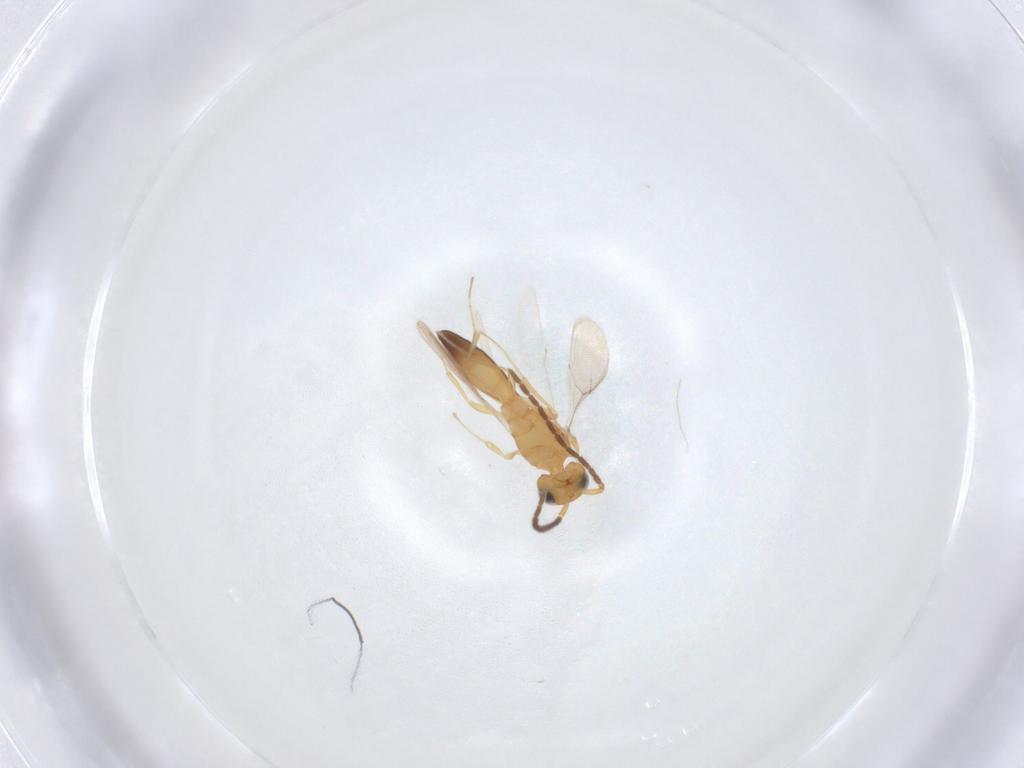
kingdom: Animalia
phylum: Arthropoda
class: Insecta
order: Hymenoptera
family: Scelionidae
